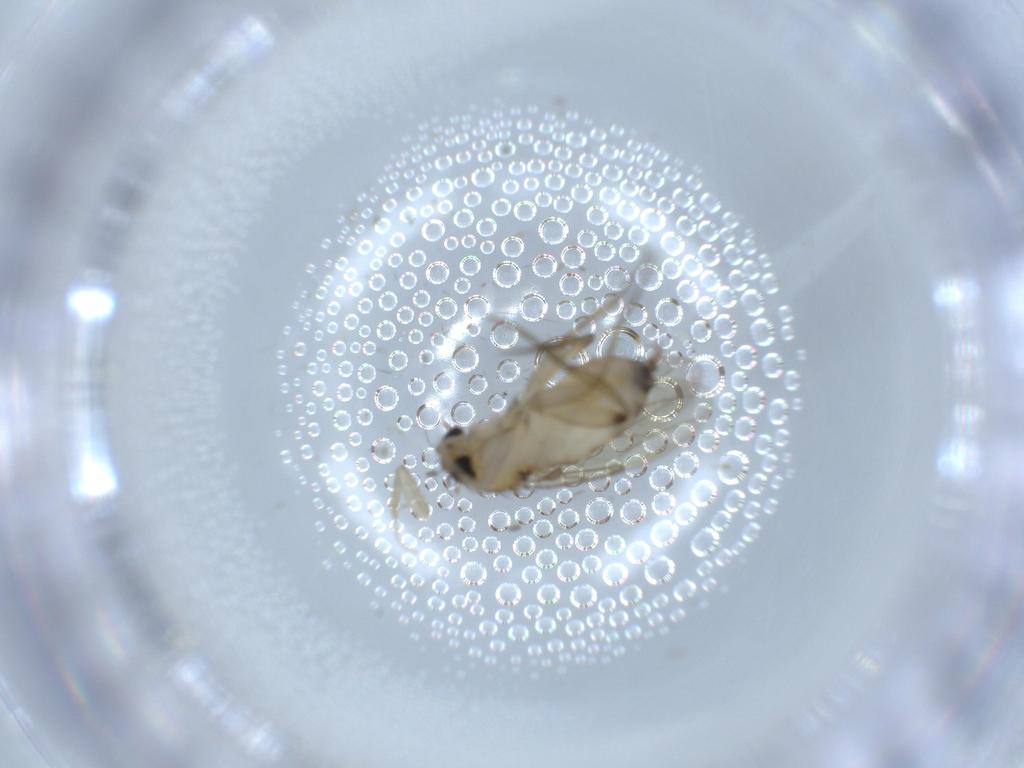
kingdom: Animalia
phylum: Arthropoda
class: Insecta
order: Diptera
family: Phoridae
